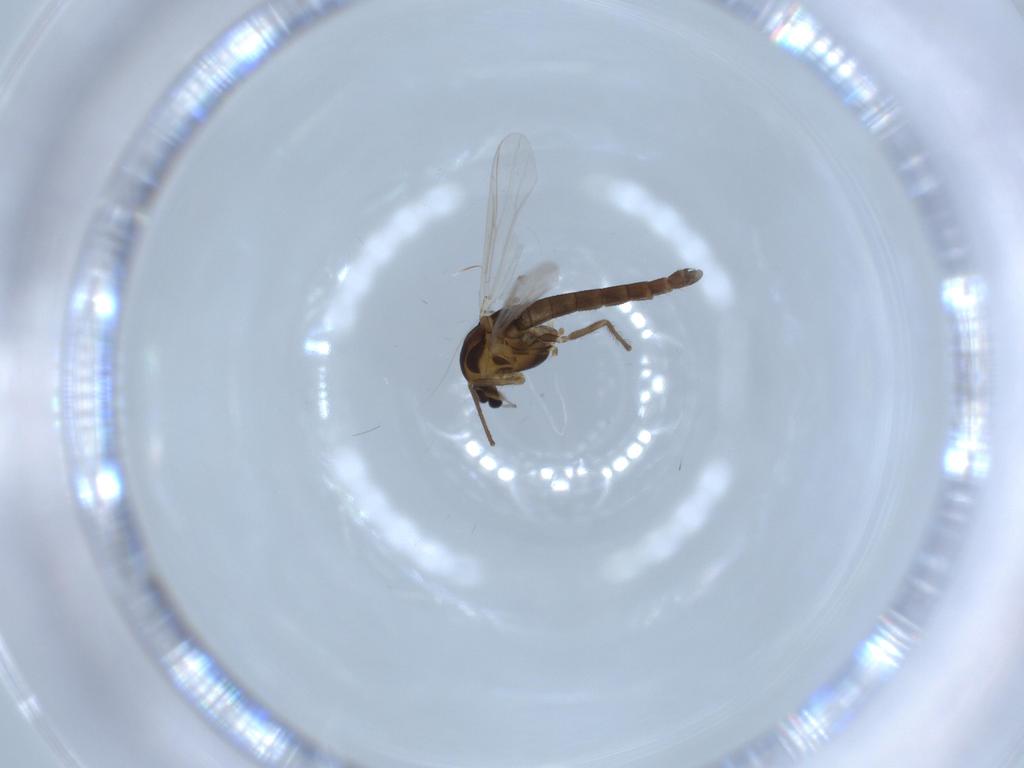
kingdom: Animalia
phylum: Arthropoda
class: Insecta
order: Diptera
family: Chironomidae
